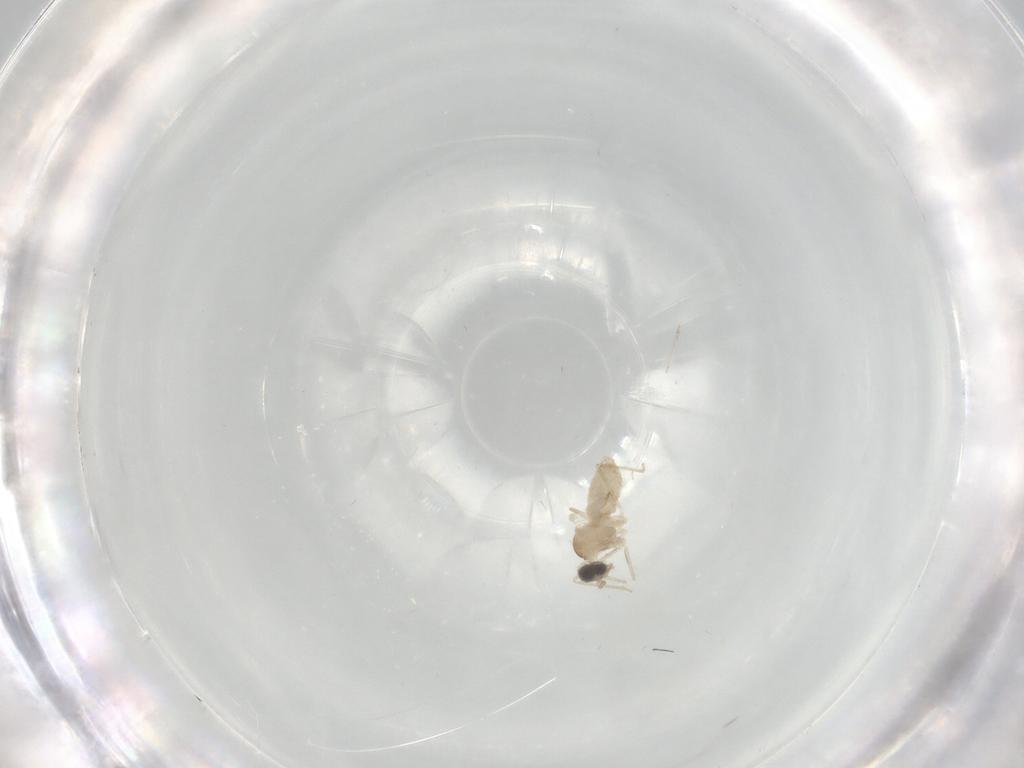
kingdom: Animalia
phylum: Arthropoda
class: Insecta
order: Diptera
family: Cecidomyiidae
